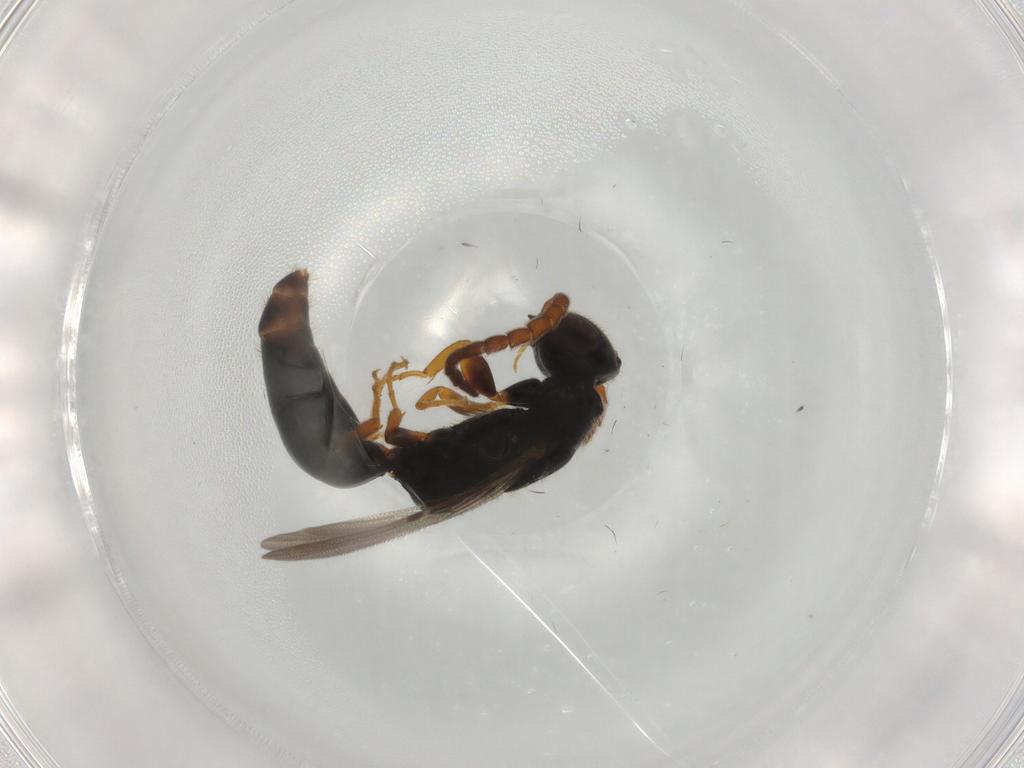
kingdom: Animalia
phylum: Arthropoda
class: Insecta
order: Hymenoptera
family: Bethylidae
